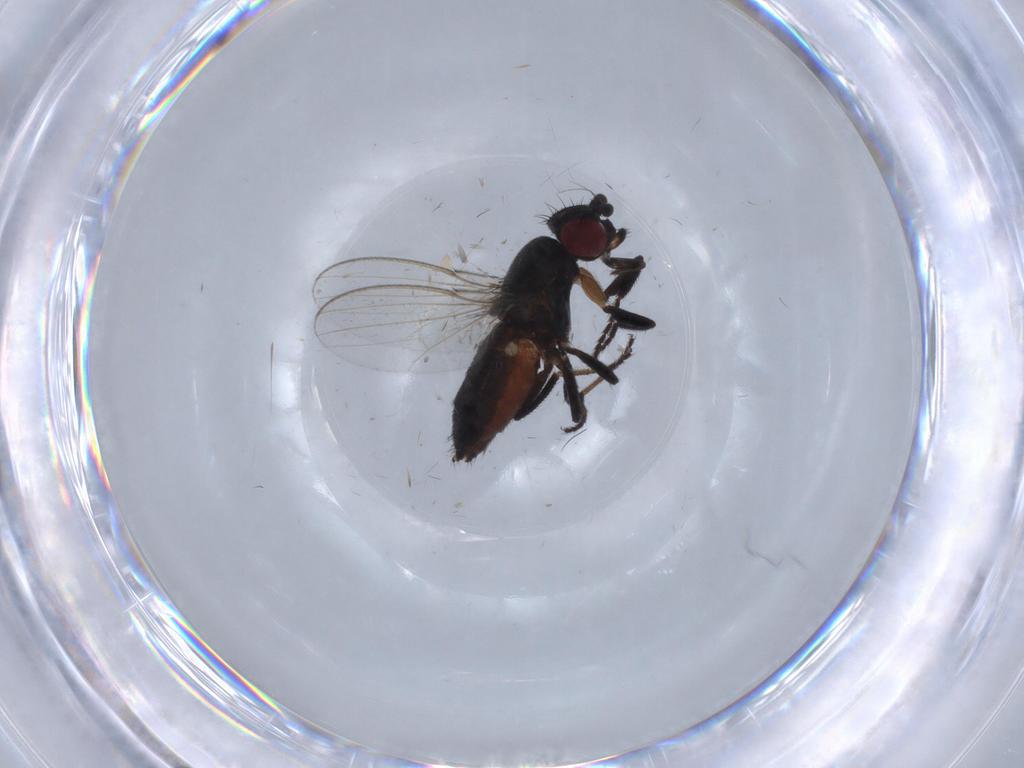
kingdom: Animalia
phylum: Arthropoda
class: Insecta
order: Diptera
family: Milichiidae
